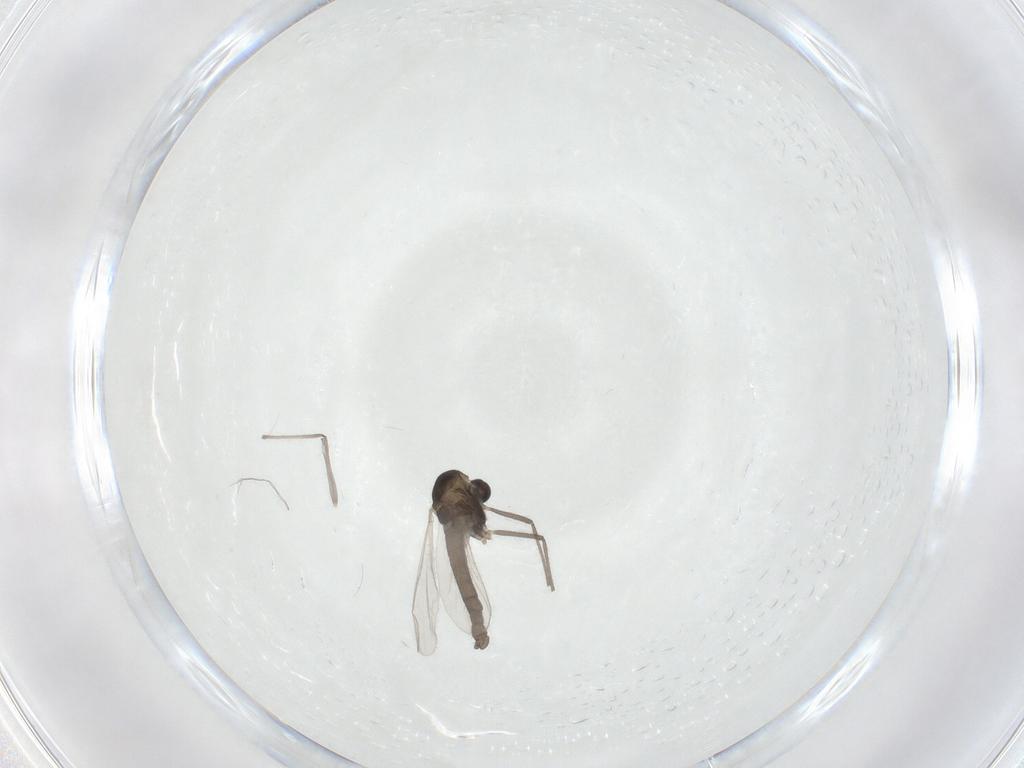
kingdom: Animalia
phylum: Arthropoda
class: Insecta
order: Diptera
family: Chironomidae
